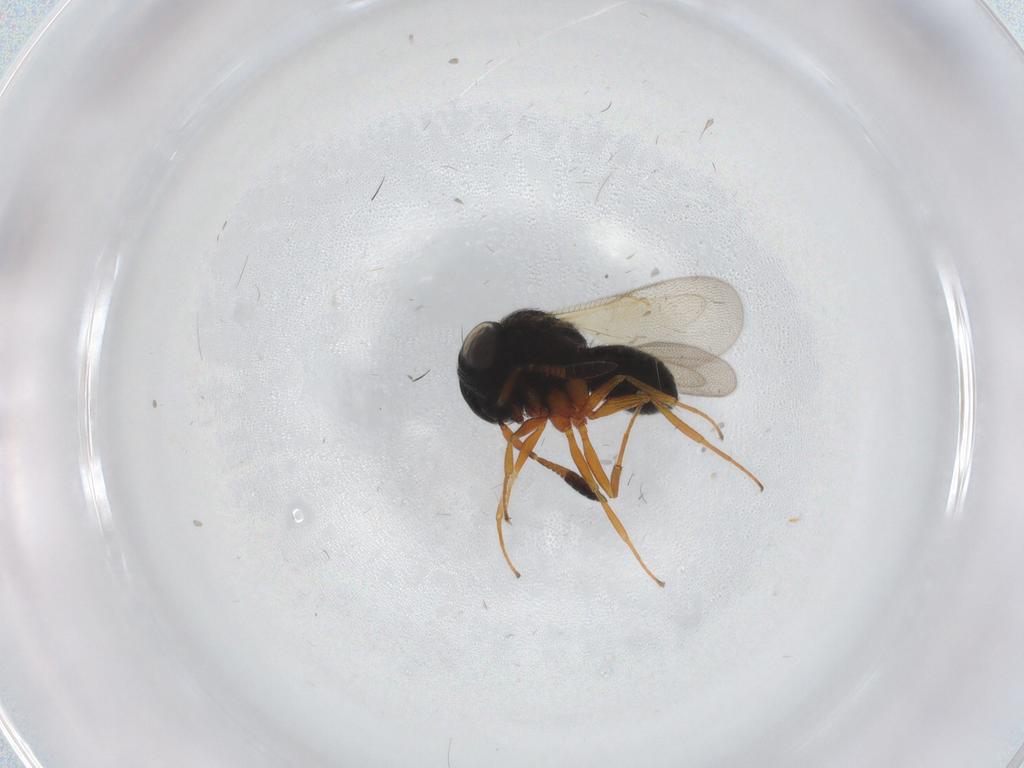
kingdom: Animalia
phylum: Arthropoda
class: Insecta
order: Hymenoptera
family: Scelionidae
